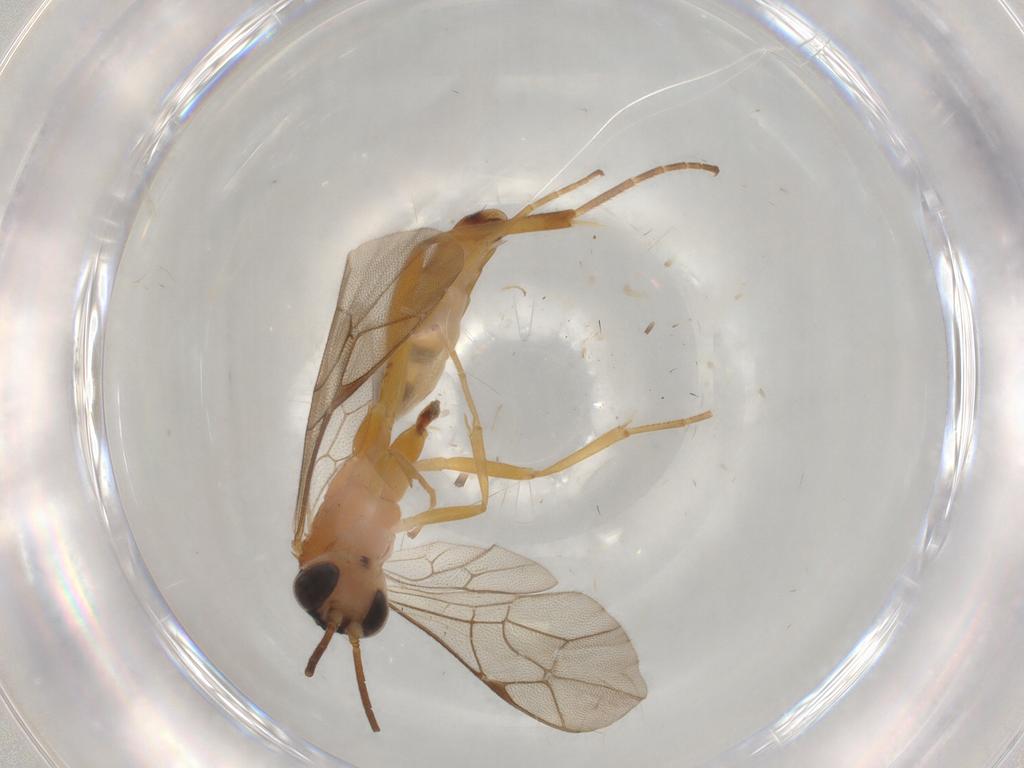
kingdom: Animalia
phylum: Arthropoda
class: Insecta
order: Hymenoptera
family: Ichneumonidae
